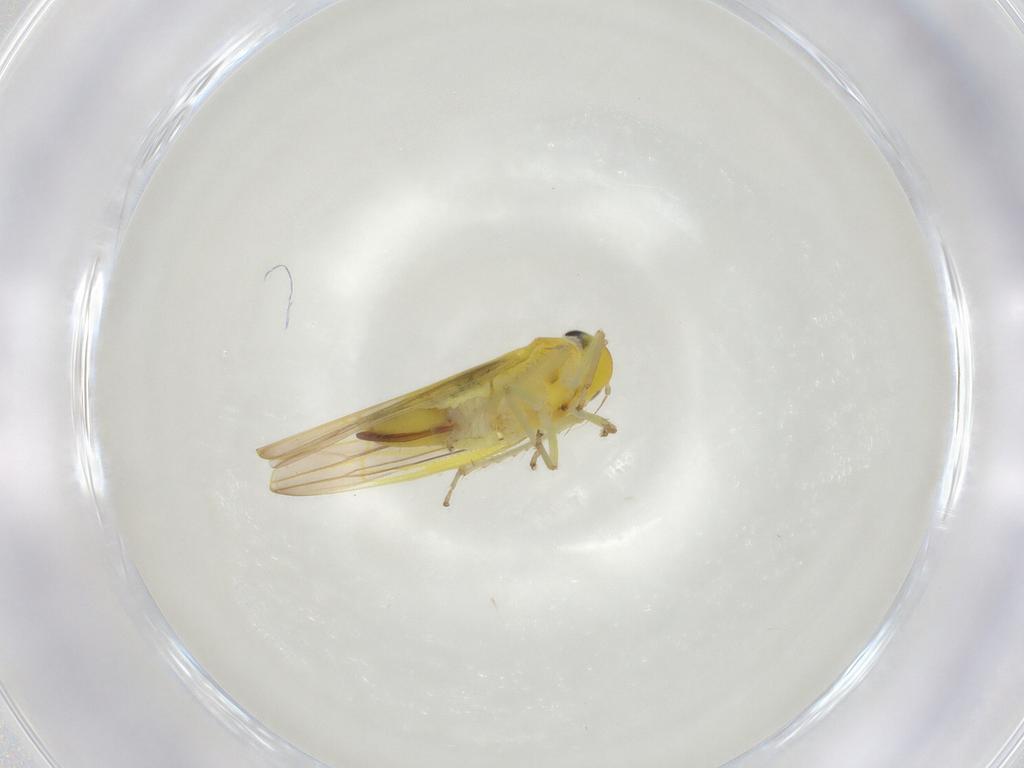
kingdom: Animalia
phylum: Arthropoda
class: Insecta
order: Hemiptera
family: Cicadellidae
